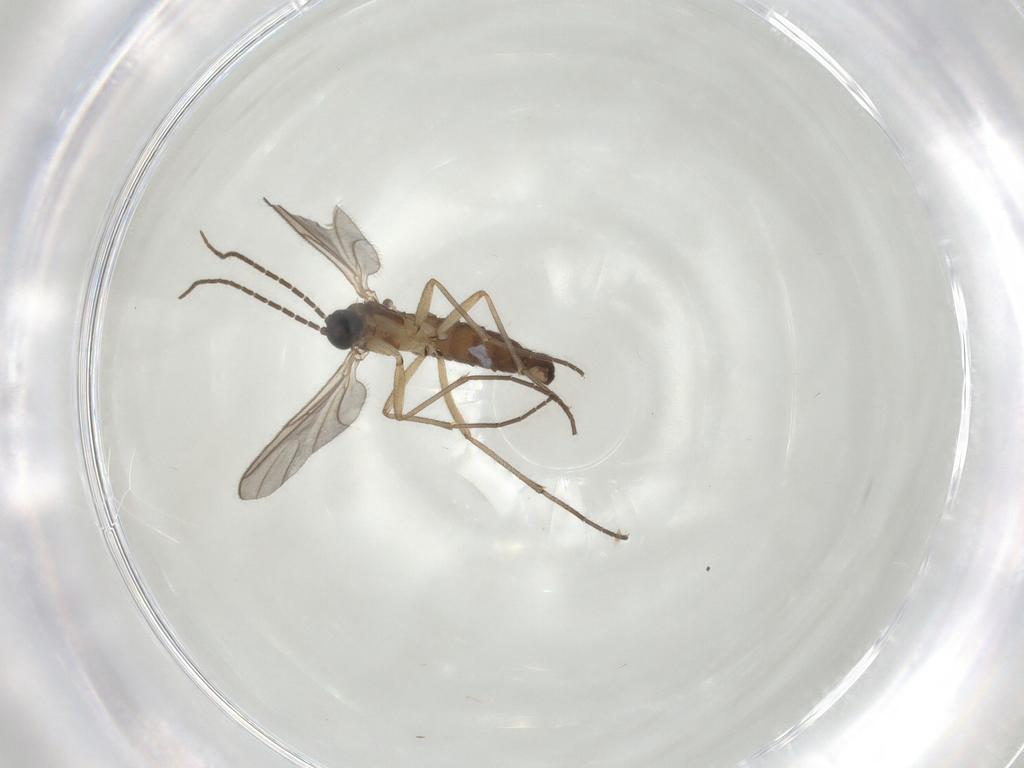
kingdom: Animalia
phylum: Arthropoda
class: Insecta
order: Diptera
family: Sciaridae
